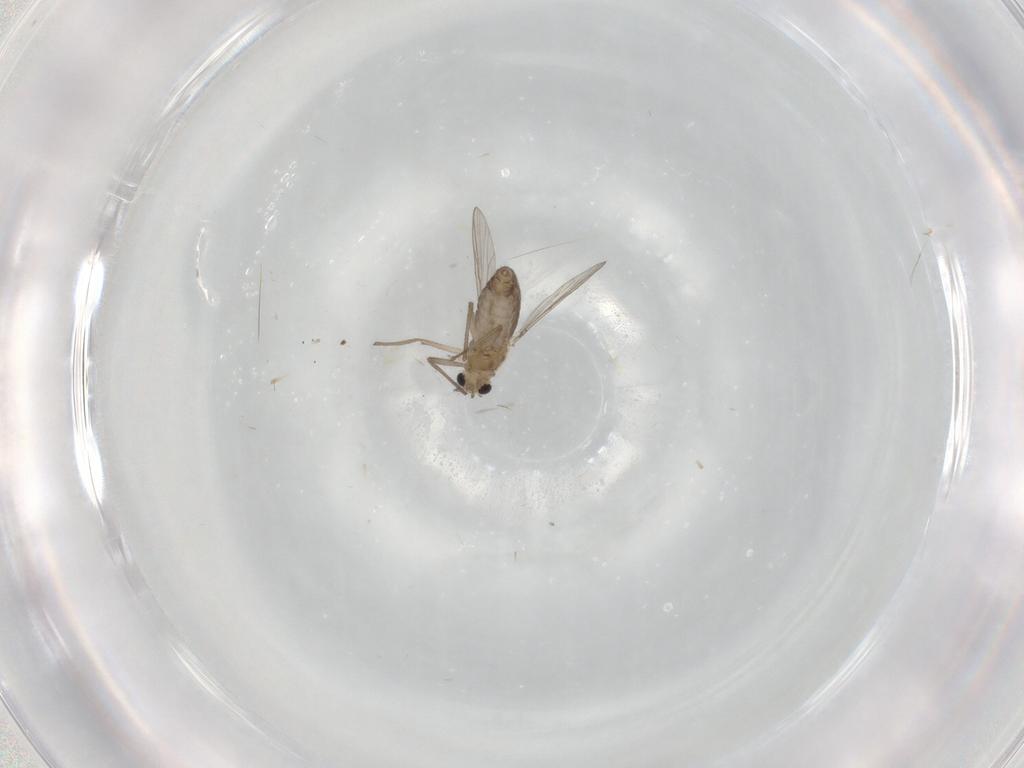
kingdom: Animalia
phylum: Arthropoda
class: Insecta
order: Diptera
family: Chironomidae
